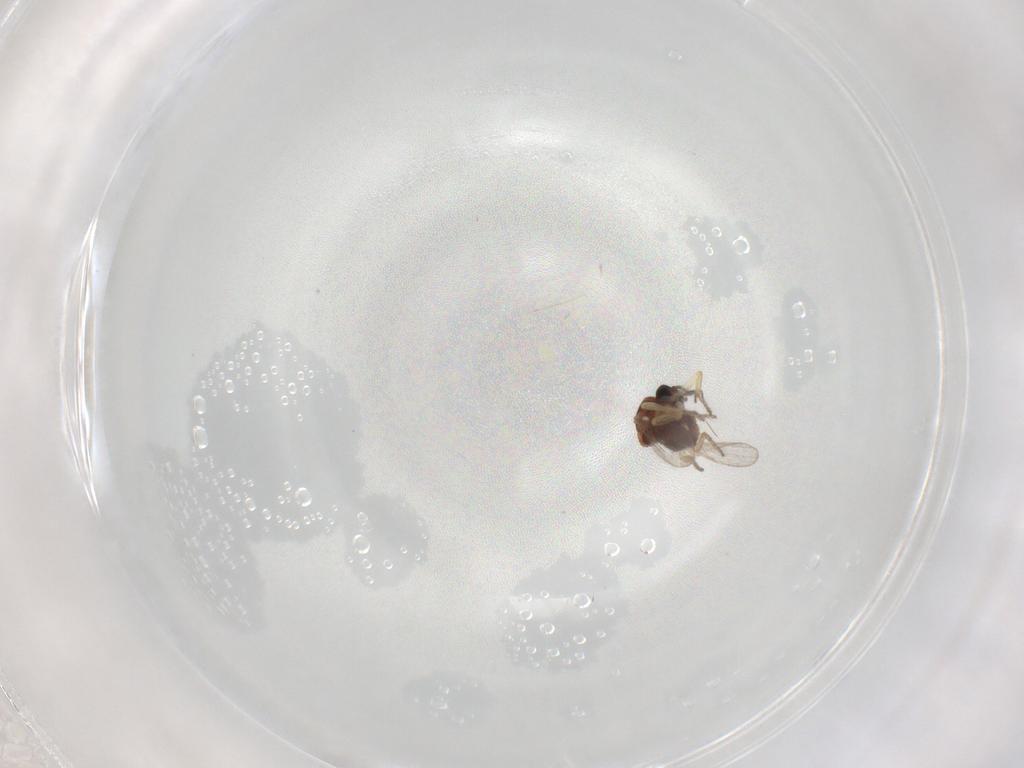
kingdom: Animalia
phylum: Arthropoda
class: Insecta
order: Diptera
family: Ceratopogonidae
